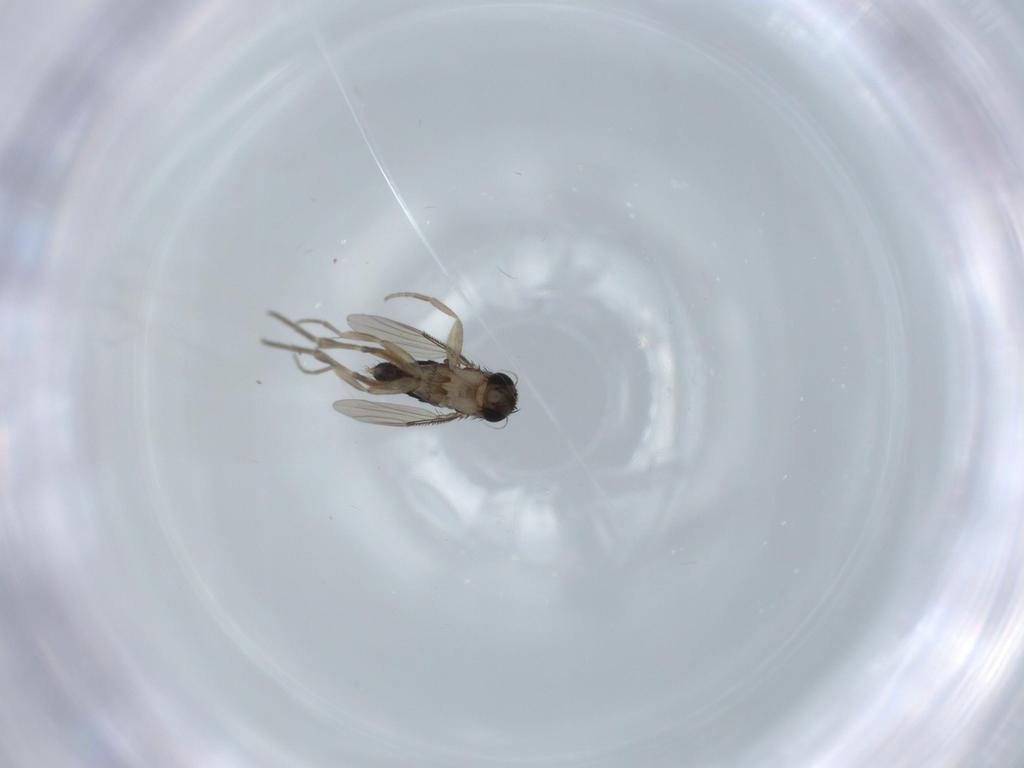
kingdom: Animalia
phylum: Arthropoda
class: Insecta
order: Diptera
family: Phoridae
